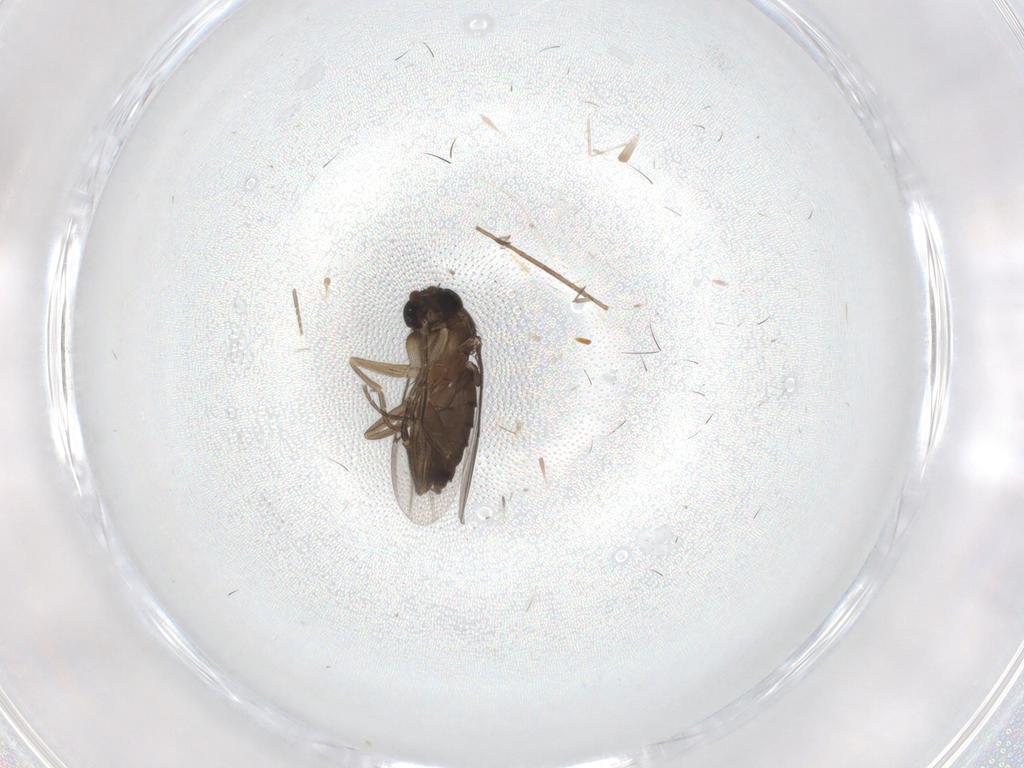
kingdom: Animalia
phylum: Arthropoda
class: Insecta
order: Diptera
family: Phoridae
